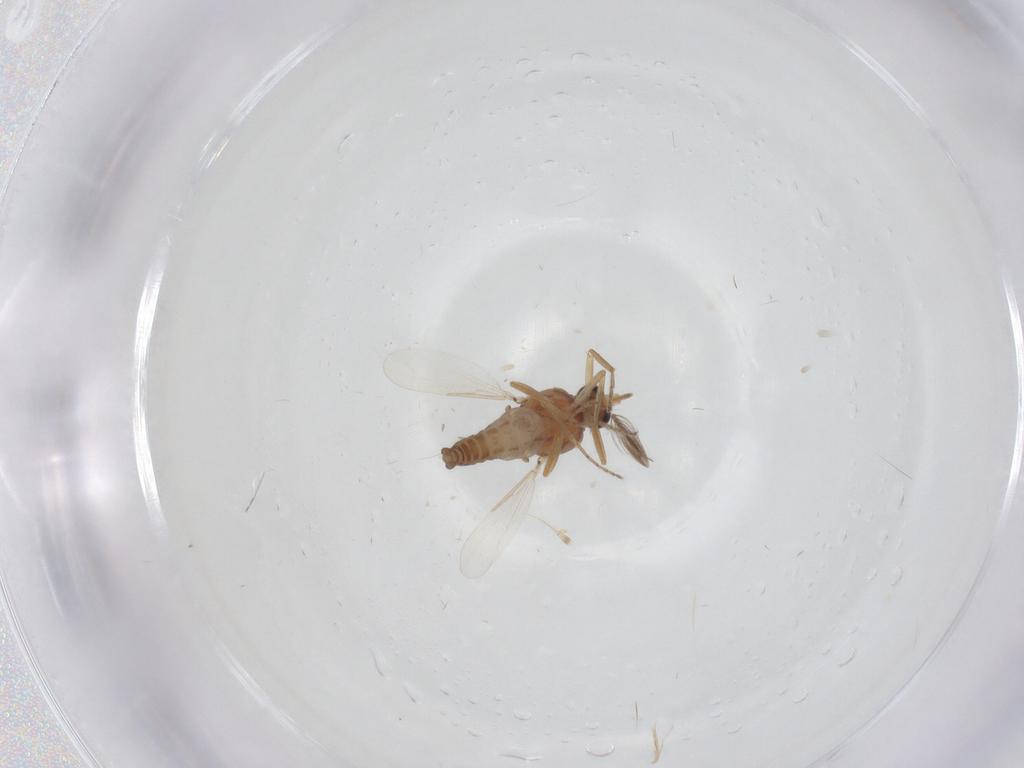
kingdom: Animalia
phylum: Arthropoda
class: Insecta
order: Diptera
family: Ceratopogonidae
